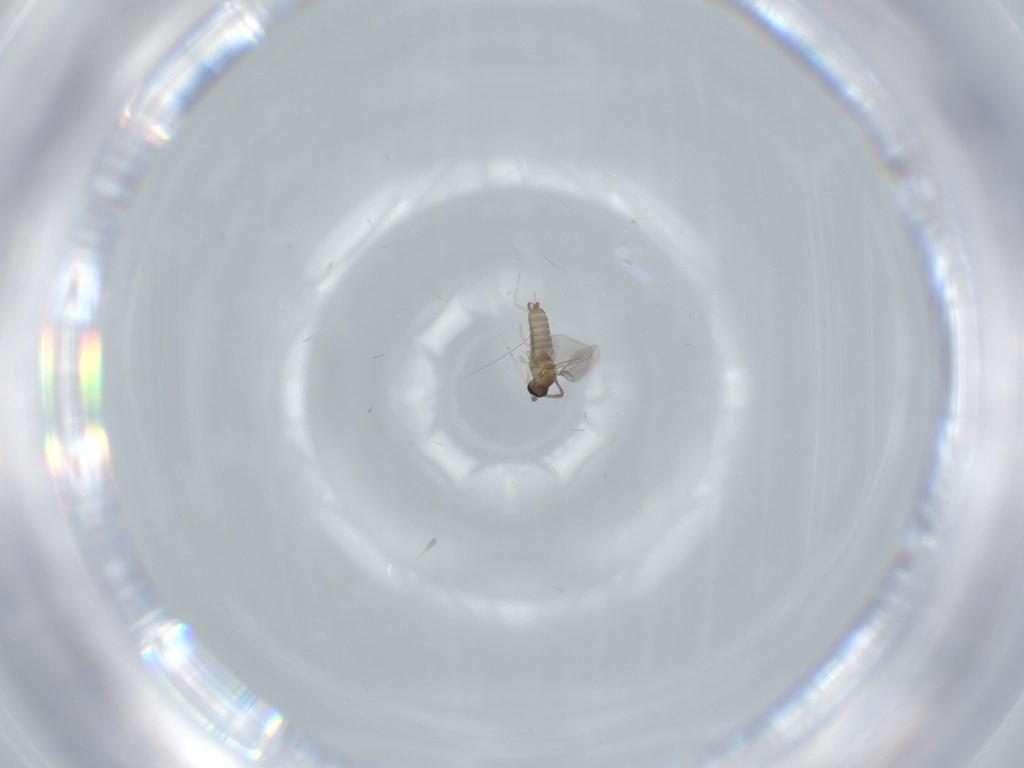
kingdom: Animalia
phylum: Arthropoda
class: Insecta
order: Diptera
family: Cecidomyiidae
